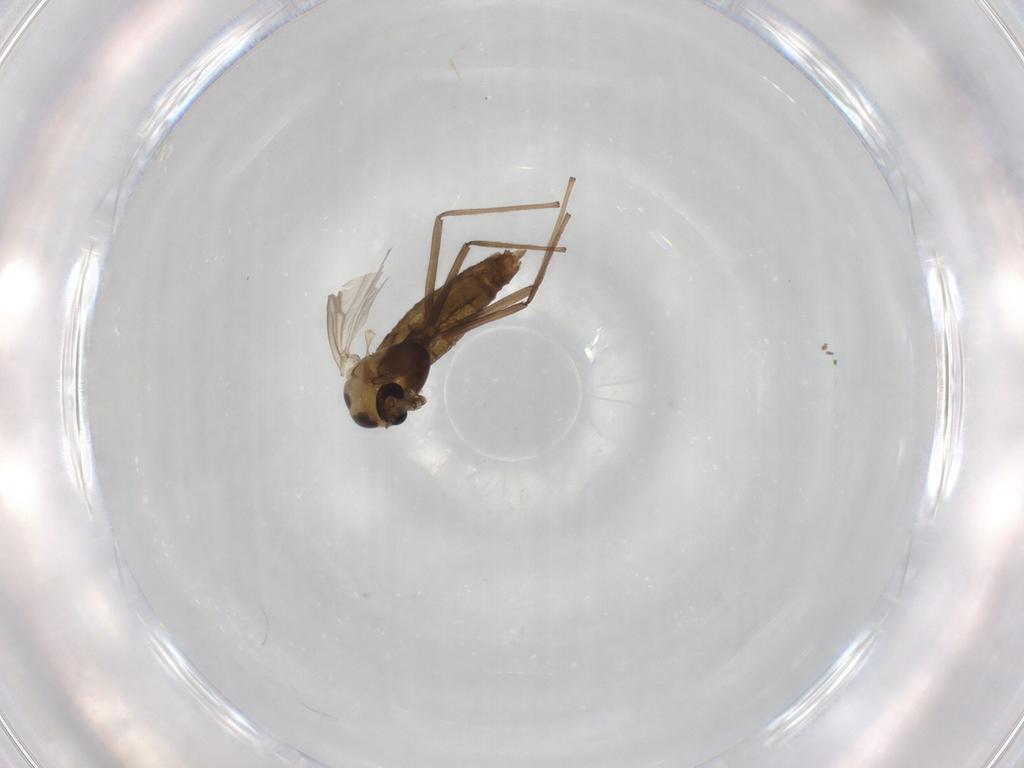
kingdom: Animalia
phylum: Arthropoda
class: Insecta
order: Diptera
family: Chironomidae
